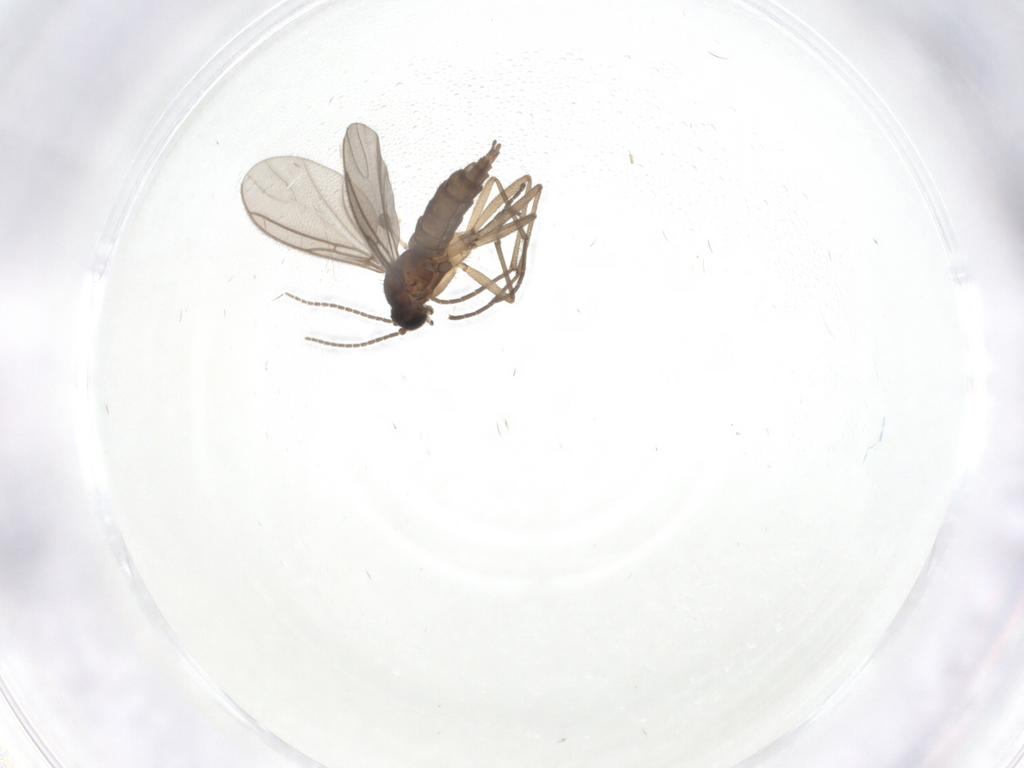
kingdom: Animalia
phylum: Arthropoda
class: Insecta
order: Diptera
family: Sciaridae
